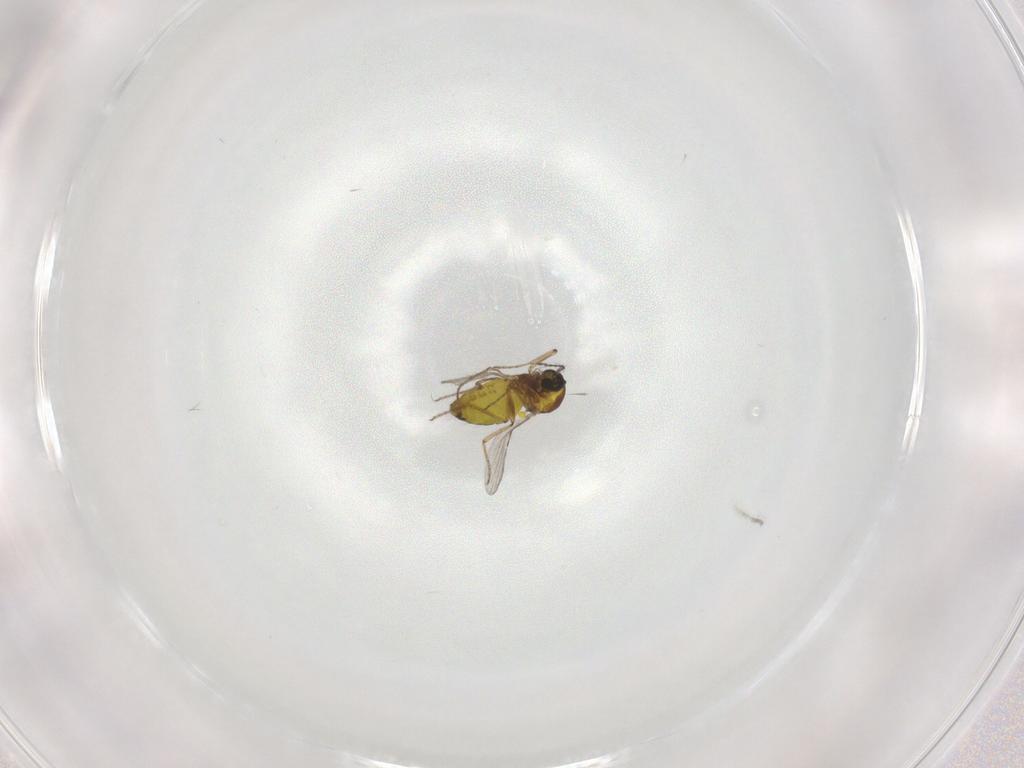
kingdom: Animalia
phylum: Arthropoda
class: Insecta
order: Diptera
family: Ceratopogonidae
